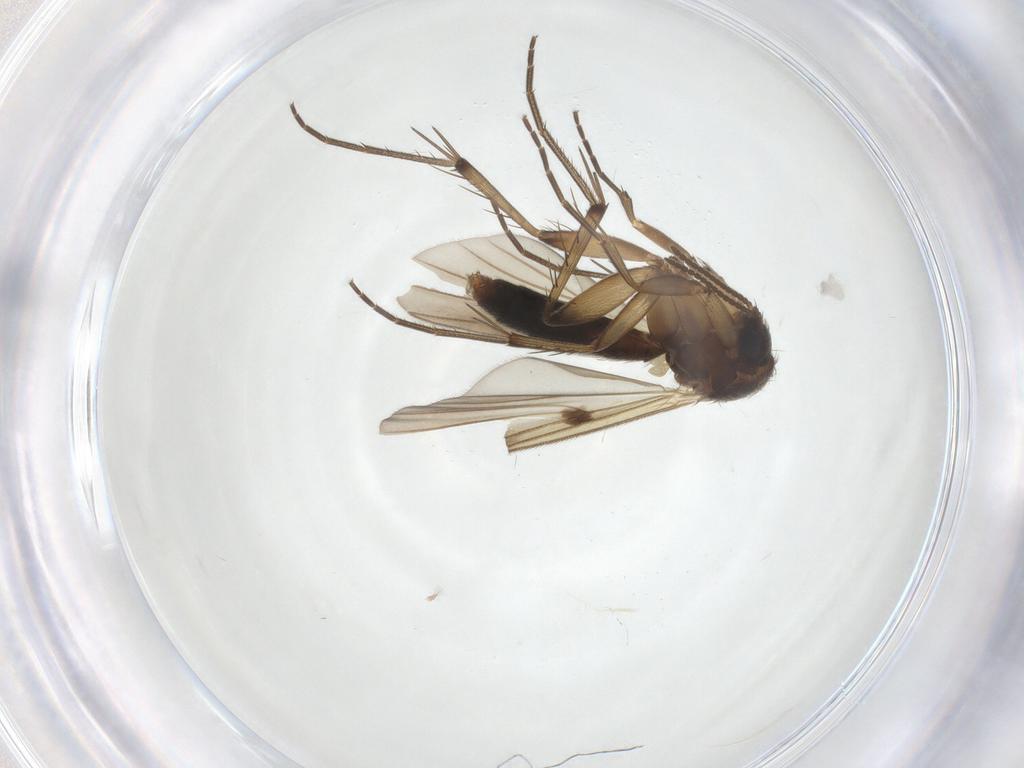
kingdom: Animalia
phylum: Arthropoda
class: Insecta
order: Diptera
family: Mycetophilidae
